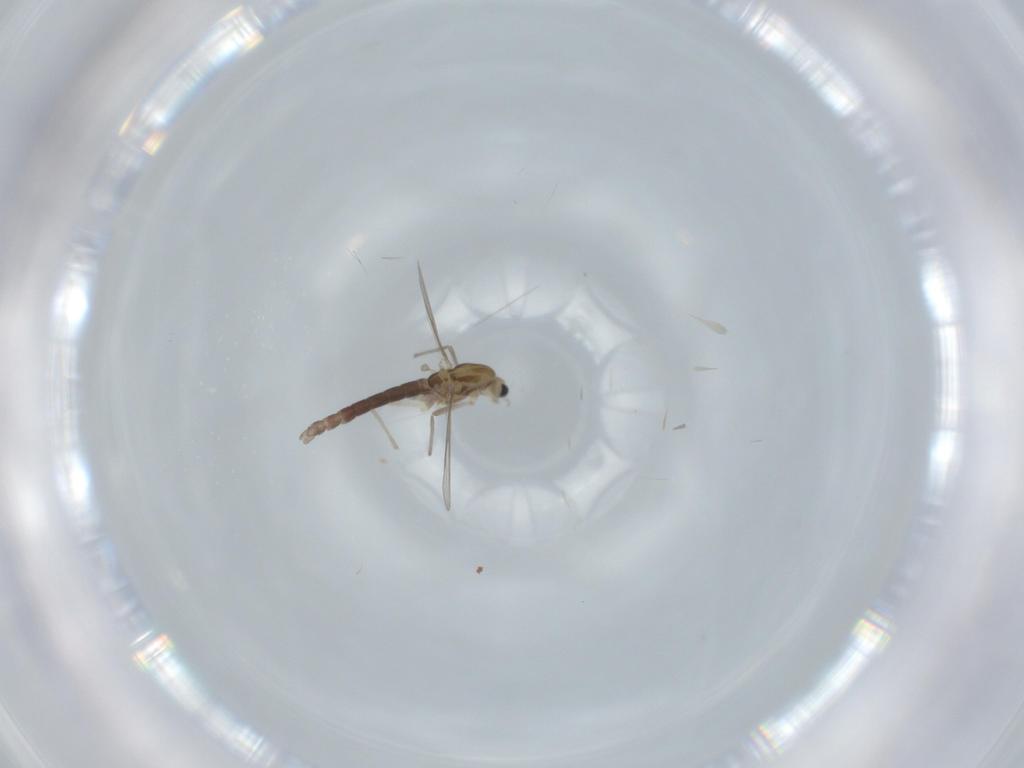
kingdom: Animalia
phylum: Arthropoda
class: Insecta
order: Diptera
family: Chironomidae
